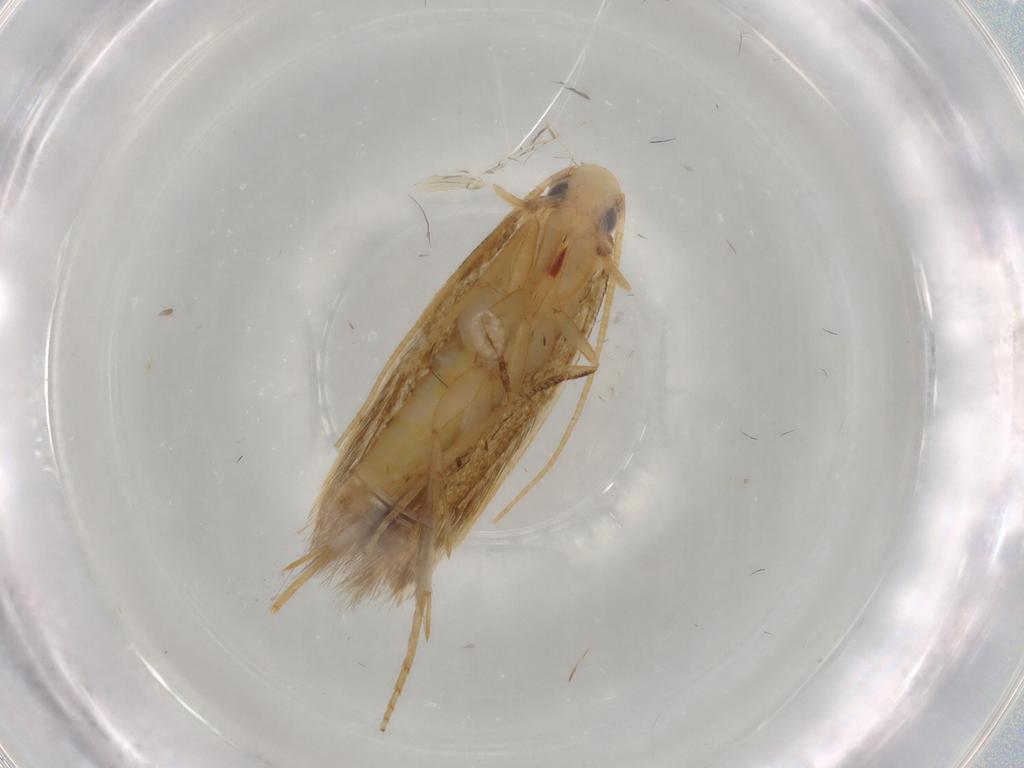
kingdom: Animalia
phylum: Arthropoda
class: Insecta
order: Lepidoptera
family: Tineidae
